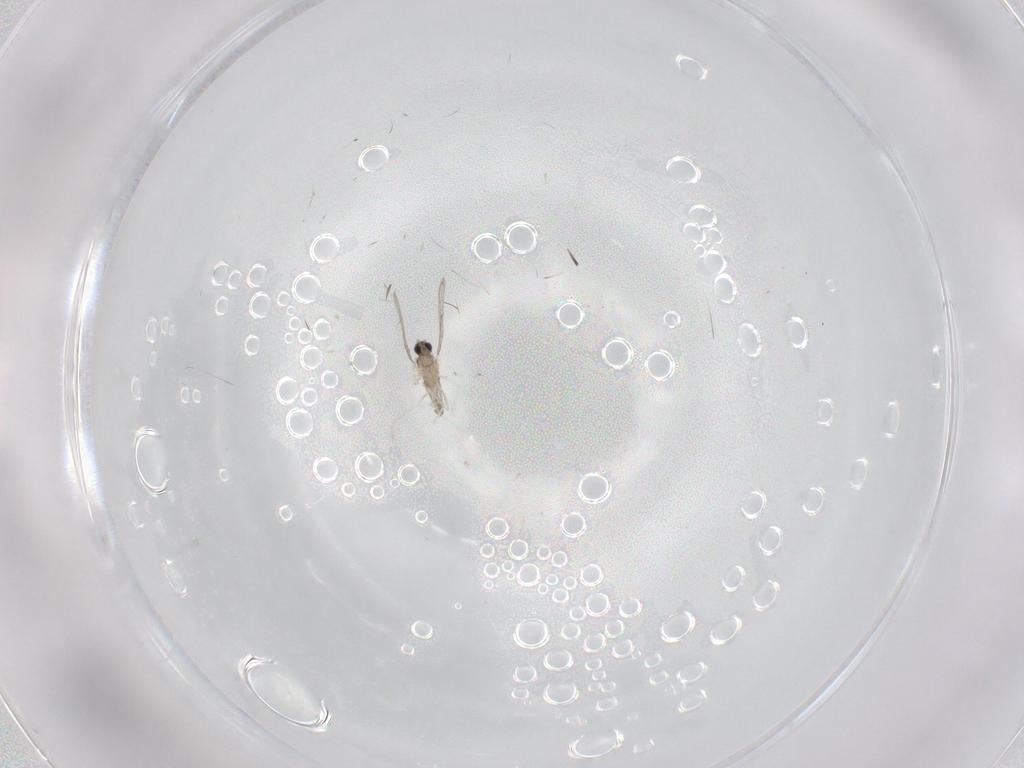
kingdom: Animalia
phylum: Arthropoda
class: Insecta
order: Diptera
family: Cecidomyiidae
